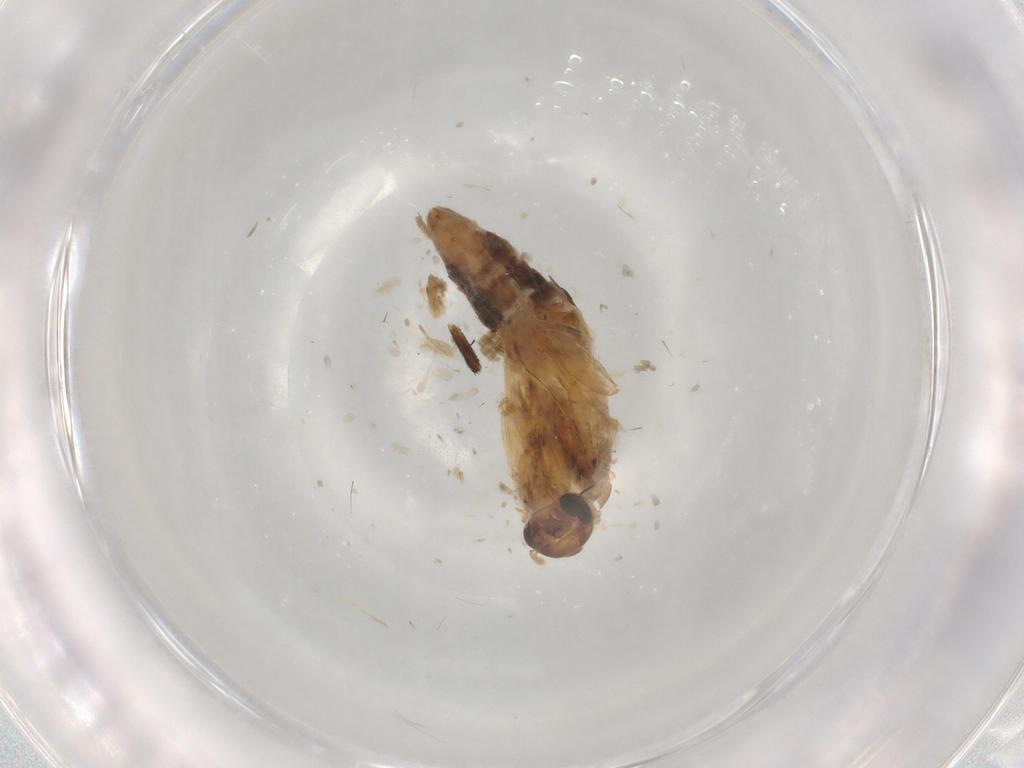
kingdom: Animalia
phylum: Arthropoda
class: Insecta
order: Lepidoptera
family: Cosmopterigidae
